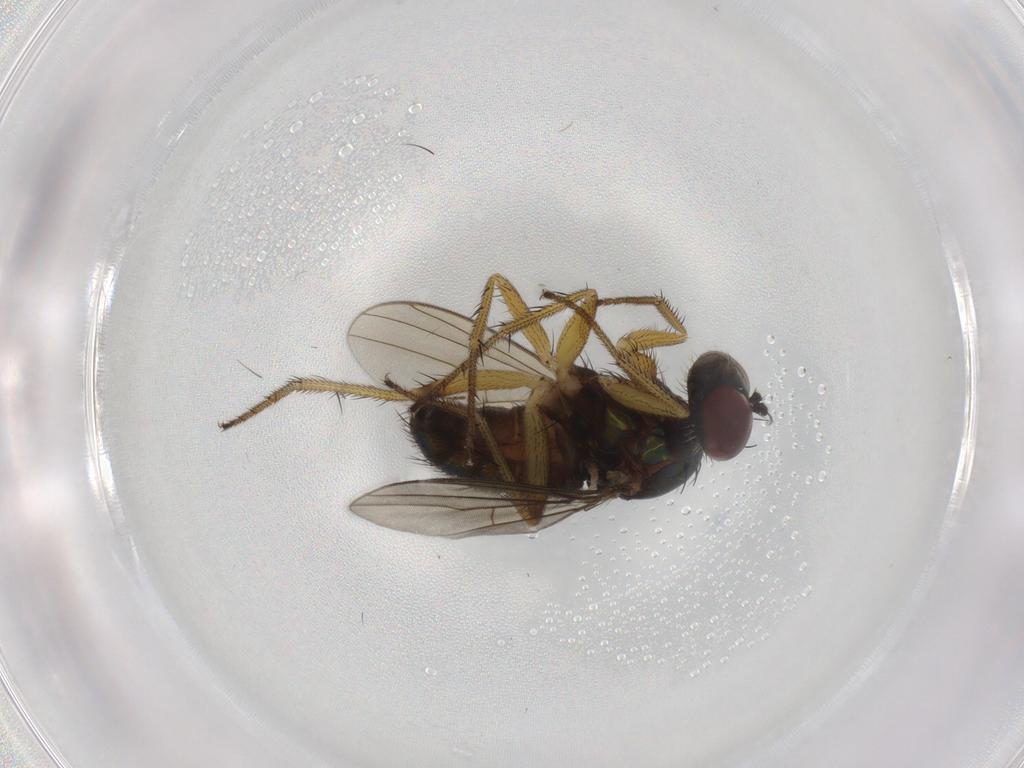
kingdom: Animalia
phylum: Arthropoda
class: Insecta
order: Diptera
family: Dolichopodidae
